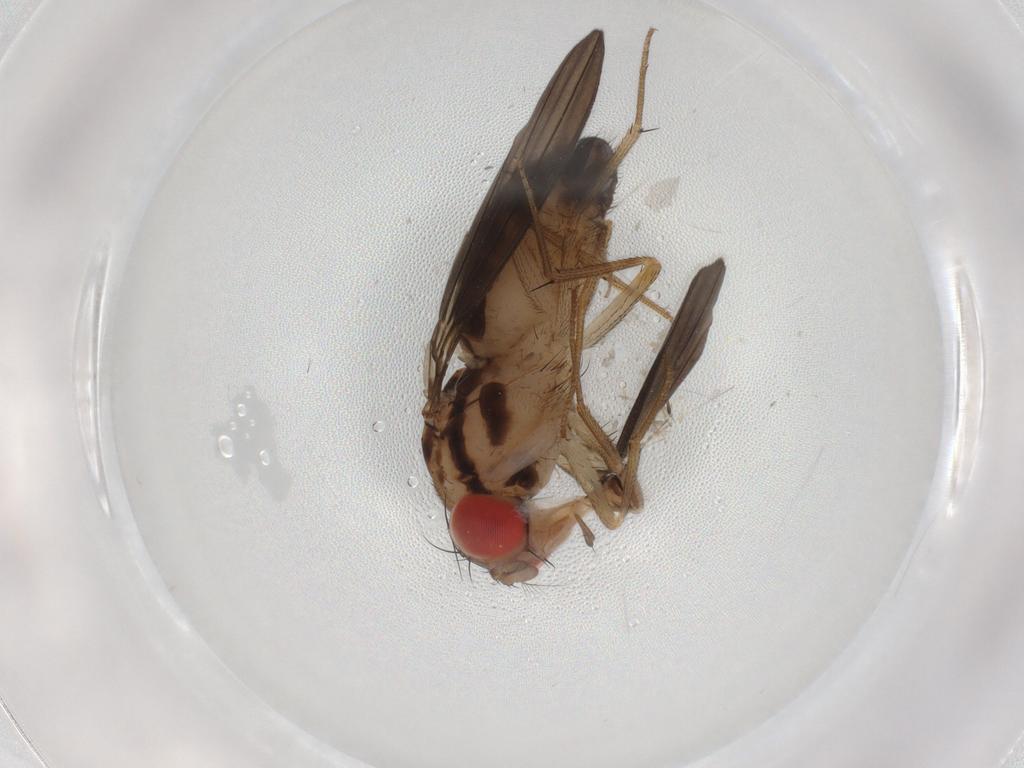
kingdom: Animalia
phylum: Arthropoda
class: Insecta
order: Diptera
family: Drosophilidae
